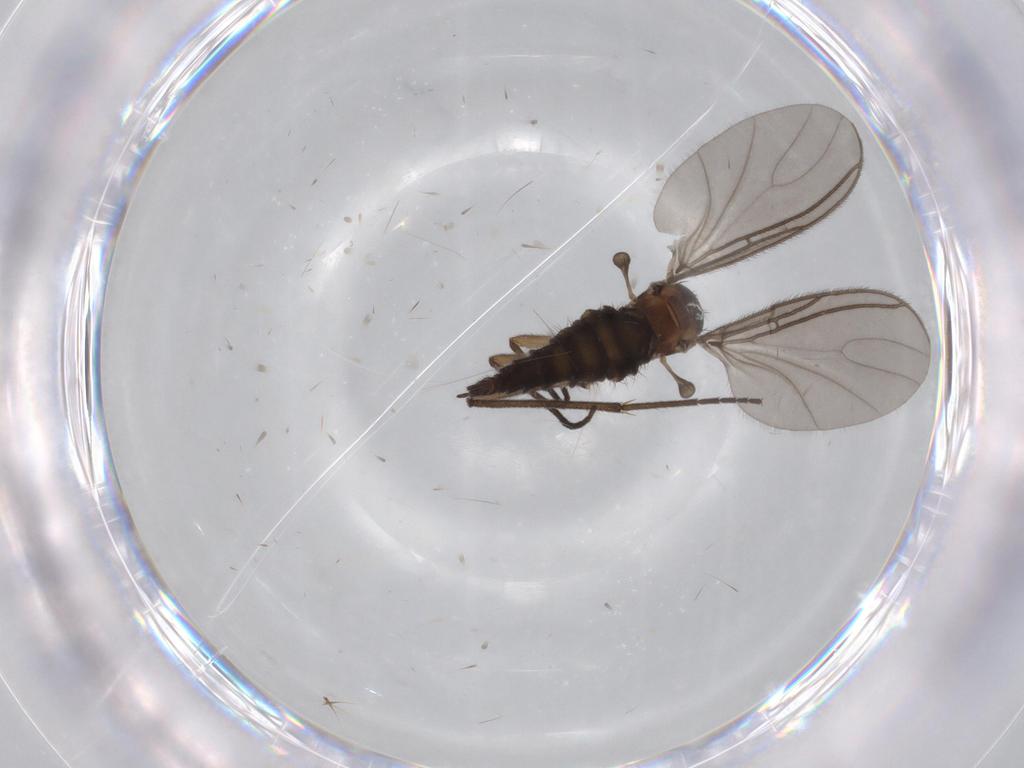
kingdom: Animalia
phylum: Arthropoda
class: Insecta
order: Diptera
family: Sciaridae
